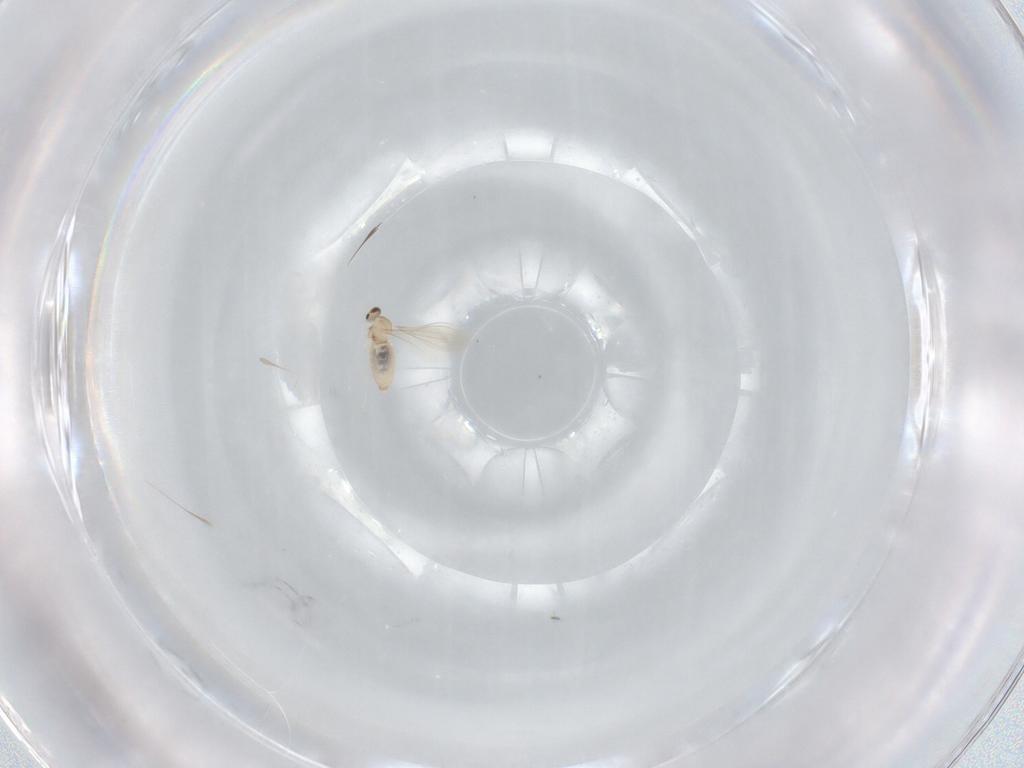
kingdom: Animalia
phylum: Arthropoda
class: Insecta
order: Diptera
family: Cecidomyiidae
